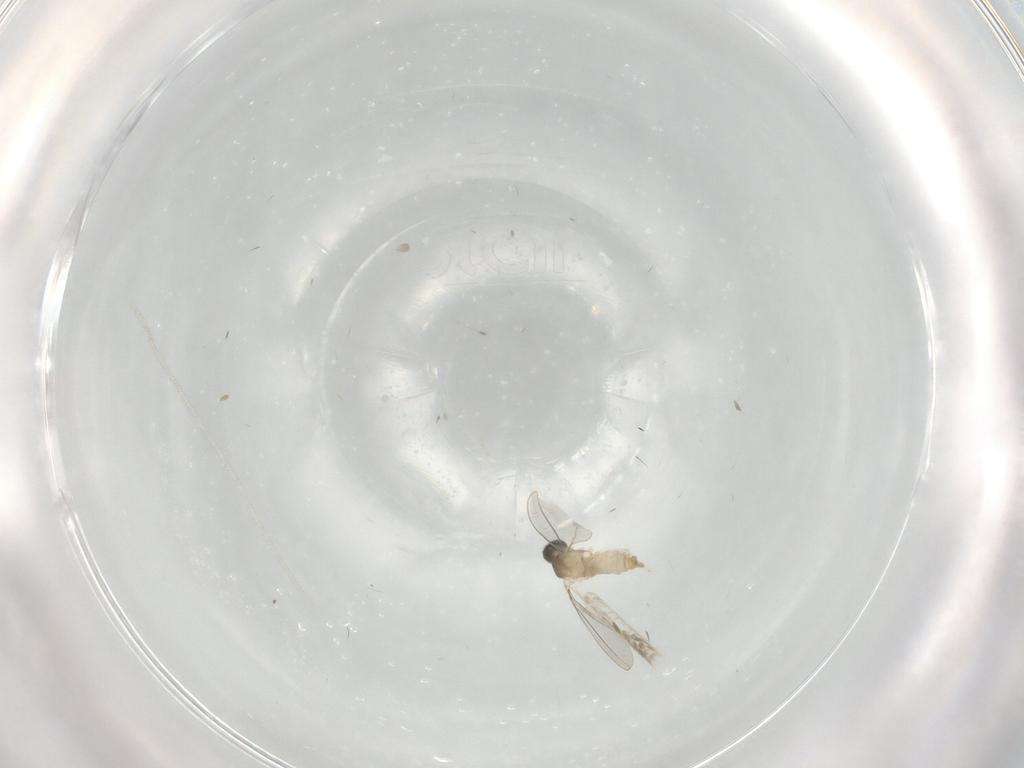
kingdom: Animalia
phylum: Arthropoda
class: Insecta
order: Diptera
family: Cecidomyiidae
